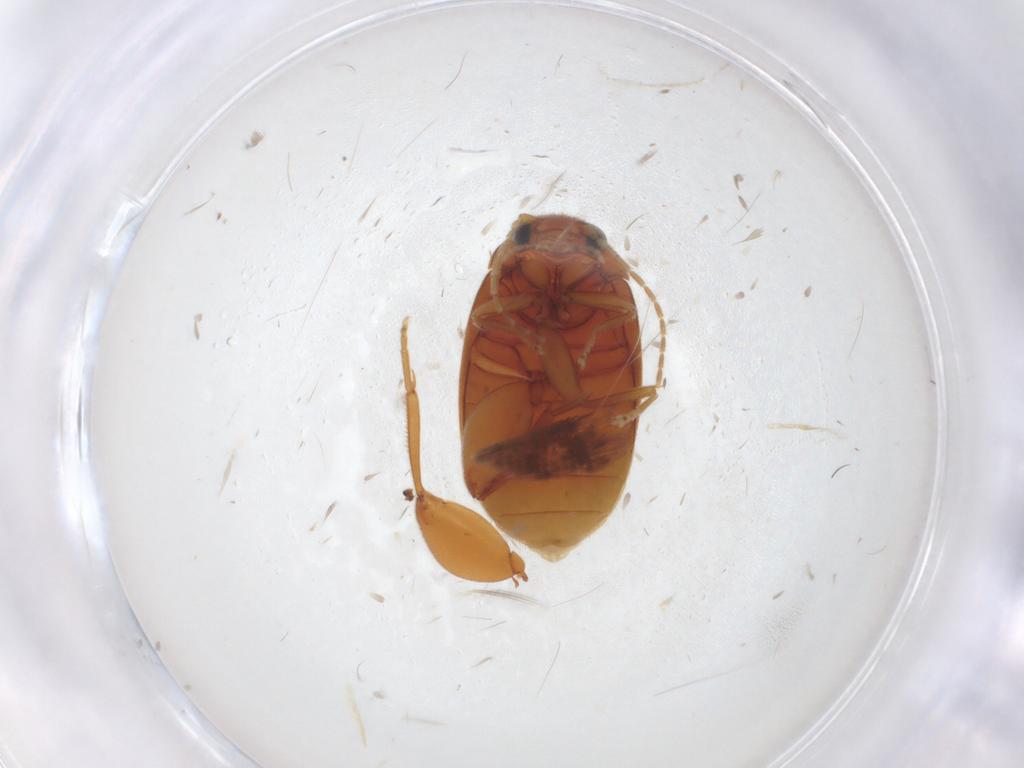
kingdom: Animalia
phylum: Arthropoda
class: Insecta
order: Coleoptera
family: Scirtidae
